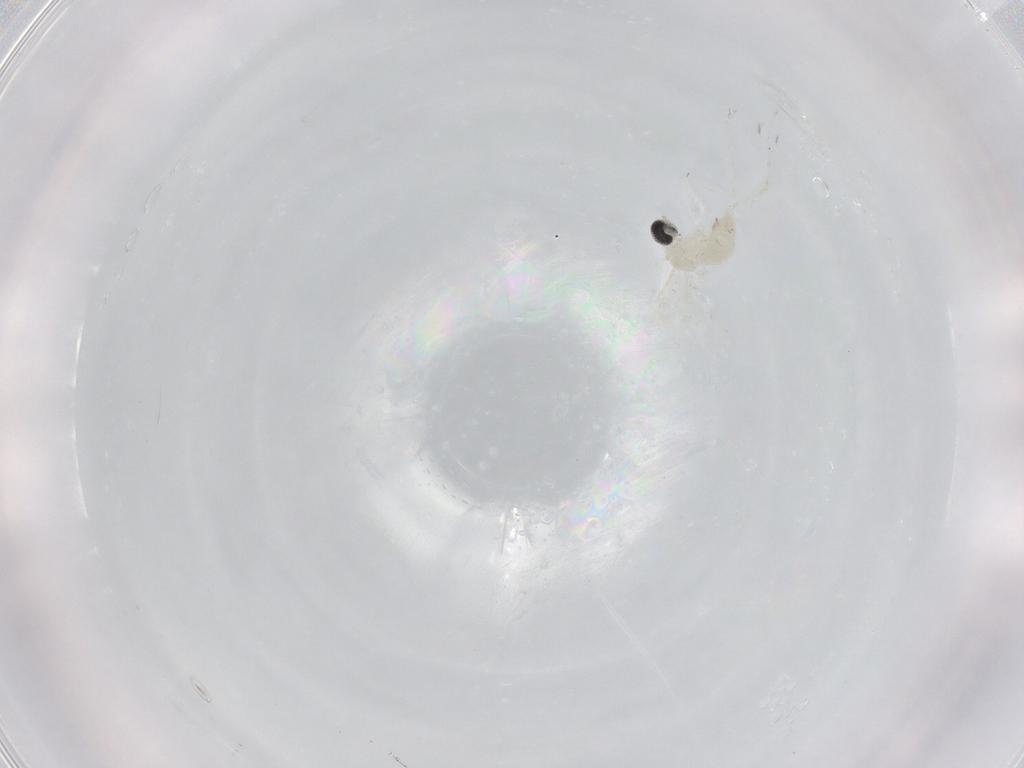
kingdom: Animalia
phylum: Arthropoda
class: Insecta
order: Diptera
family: Cecidomyiidae
